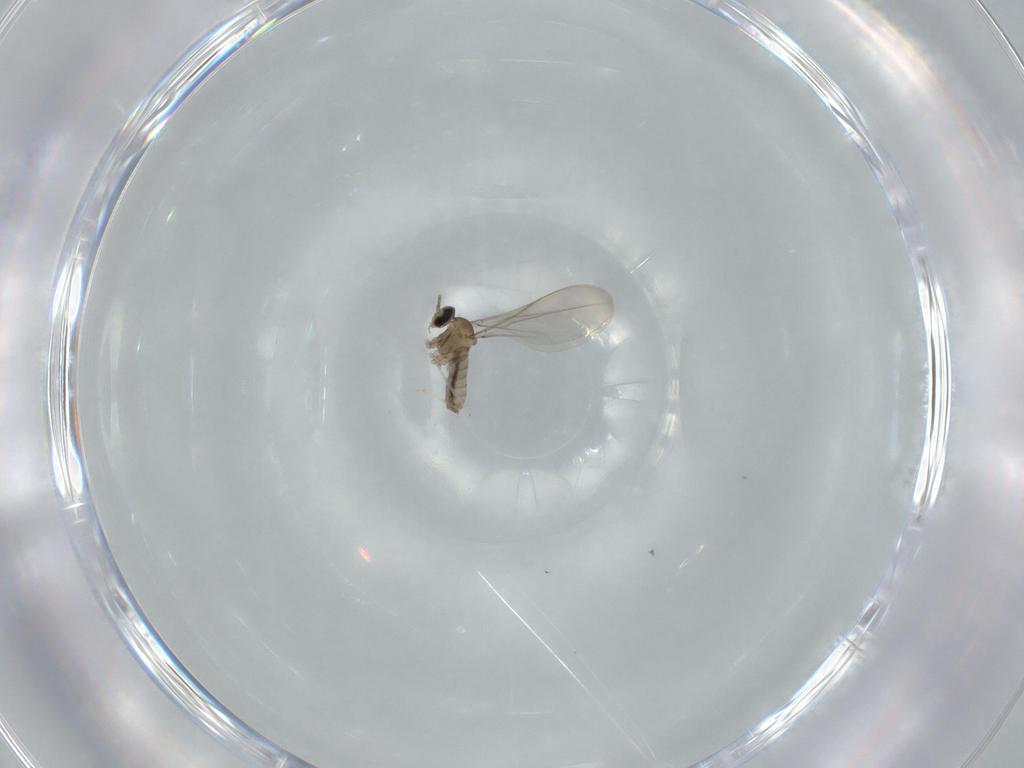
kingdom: Animalia
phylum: Arthropoda
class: Insecta
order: Diptera
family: Cecidomyiidae
